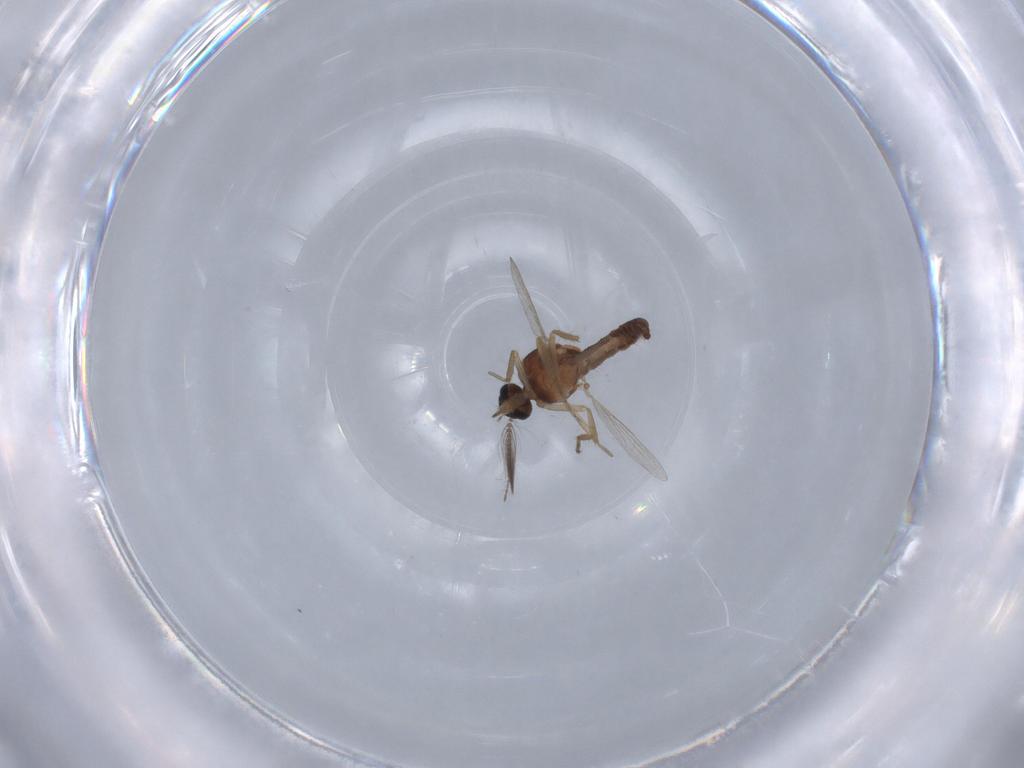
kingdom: Animalia
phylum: Arthropoda
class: Insecta
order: Diptera
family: Ceratopogonidae
